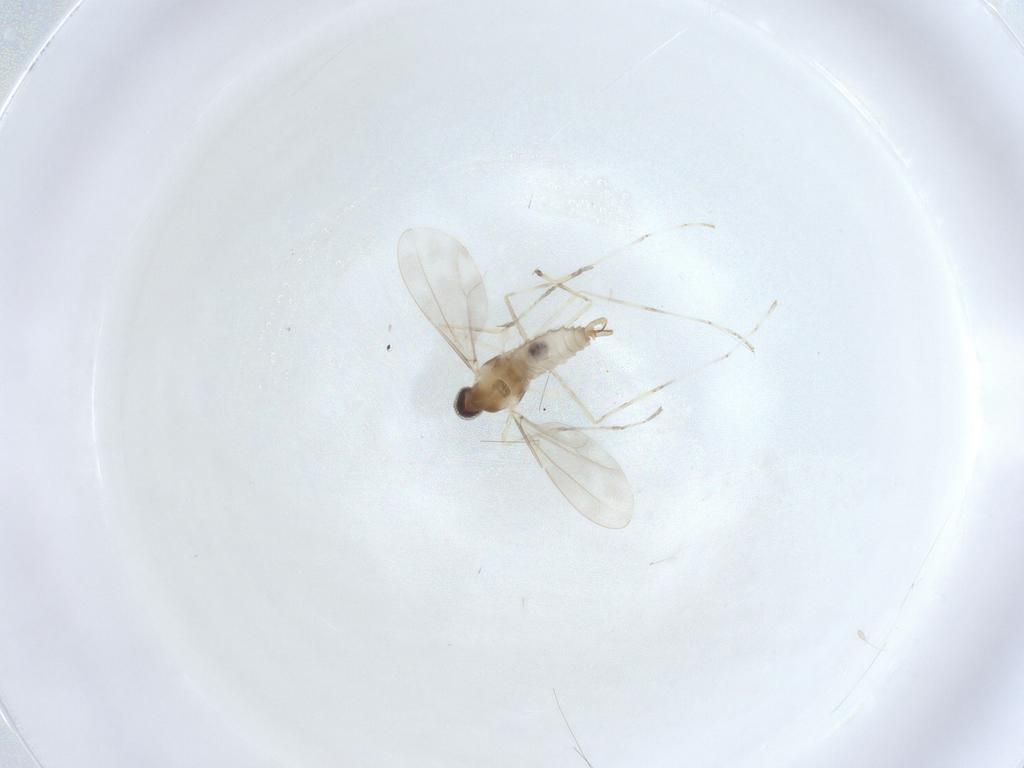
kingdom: Animalia
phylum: Arthropoda
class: Insecta
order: Diptera
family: Cecidomyiidae
